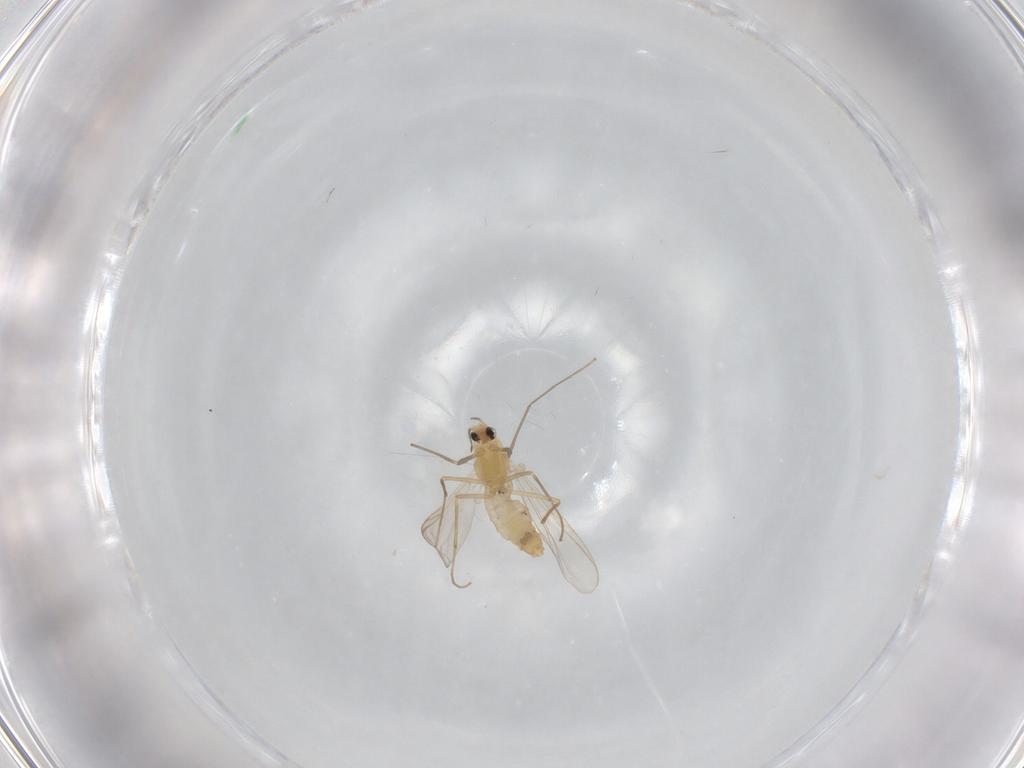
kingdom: Animalia
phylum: Arthropoda
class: Insecta
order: Diptera
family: Chironomidae
